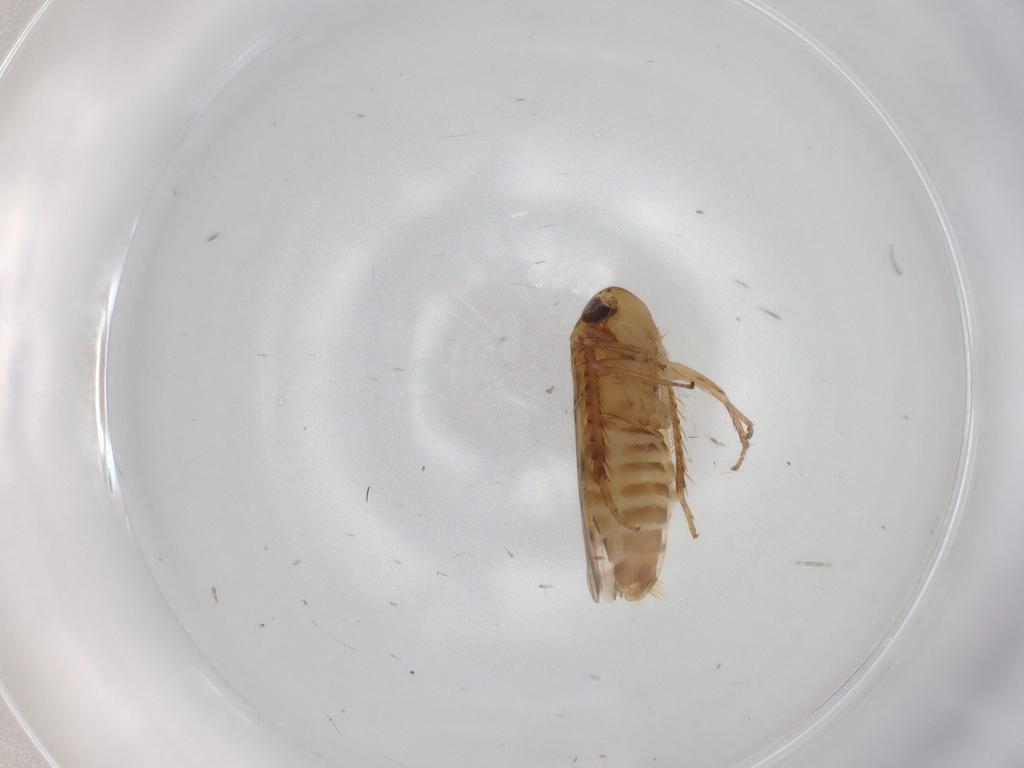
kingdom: Animalia
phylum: Arthropoda
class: Insecta
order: Hemiptera
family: Cicadellidae
